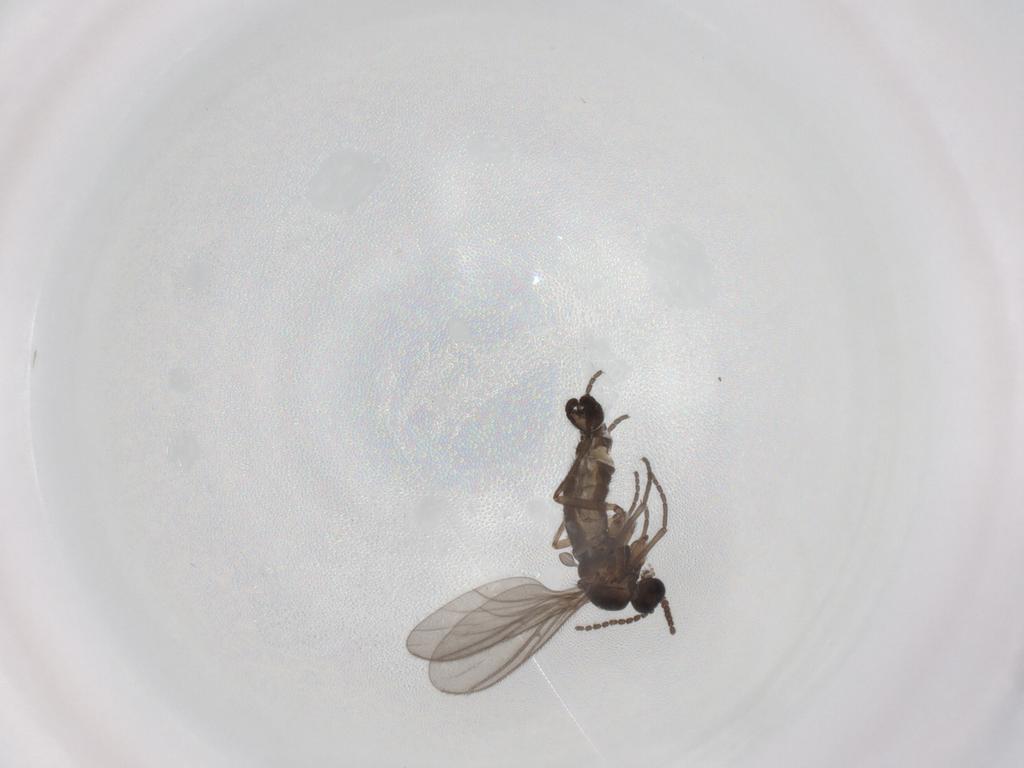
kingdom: Animalia
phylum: Arthropoda
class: Insecta
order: Diptera
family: Sciaridae
